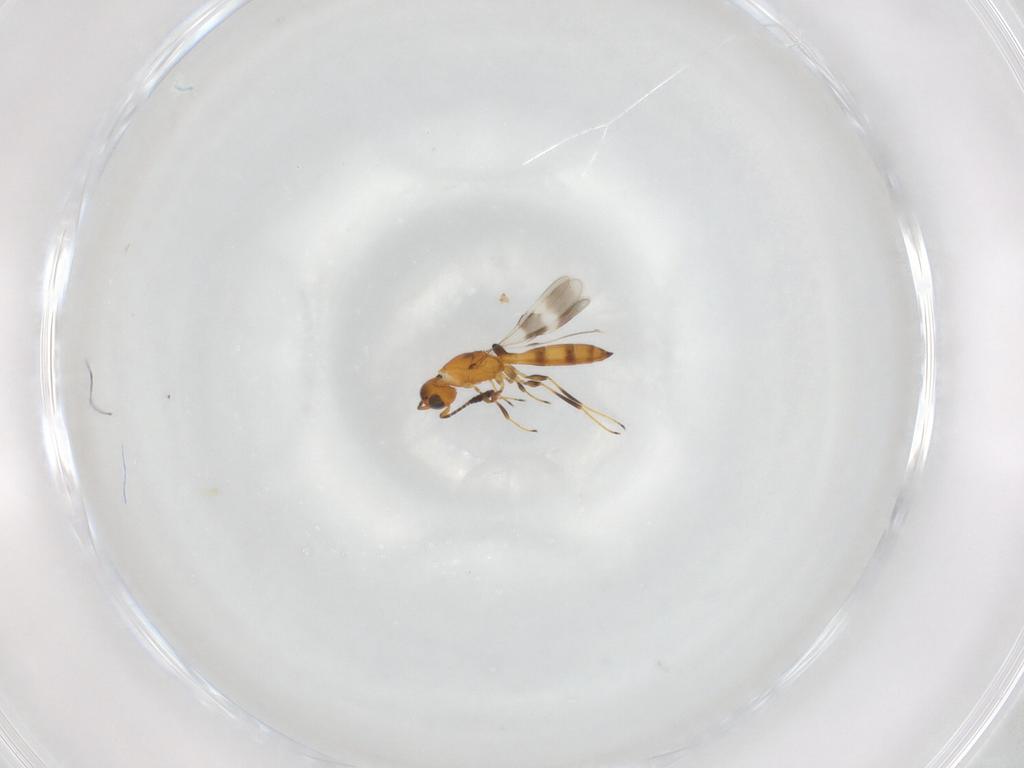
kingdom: Animalia
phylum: Arthropoda
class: Insecta
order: Hymenoptera
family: Scelionidae
